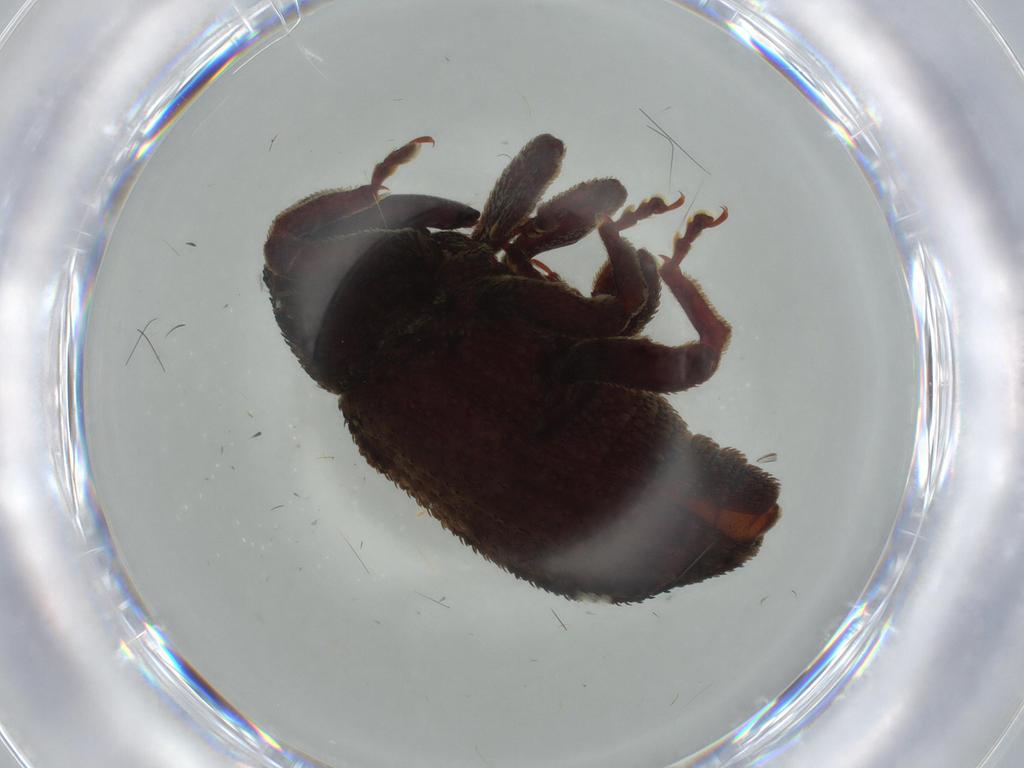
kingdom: Animalia
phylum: Arthropoda
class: Insecta
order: Coleoptera
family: Curculionidae
